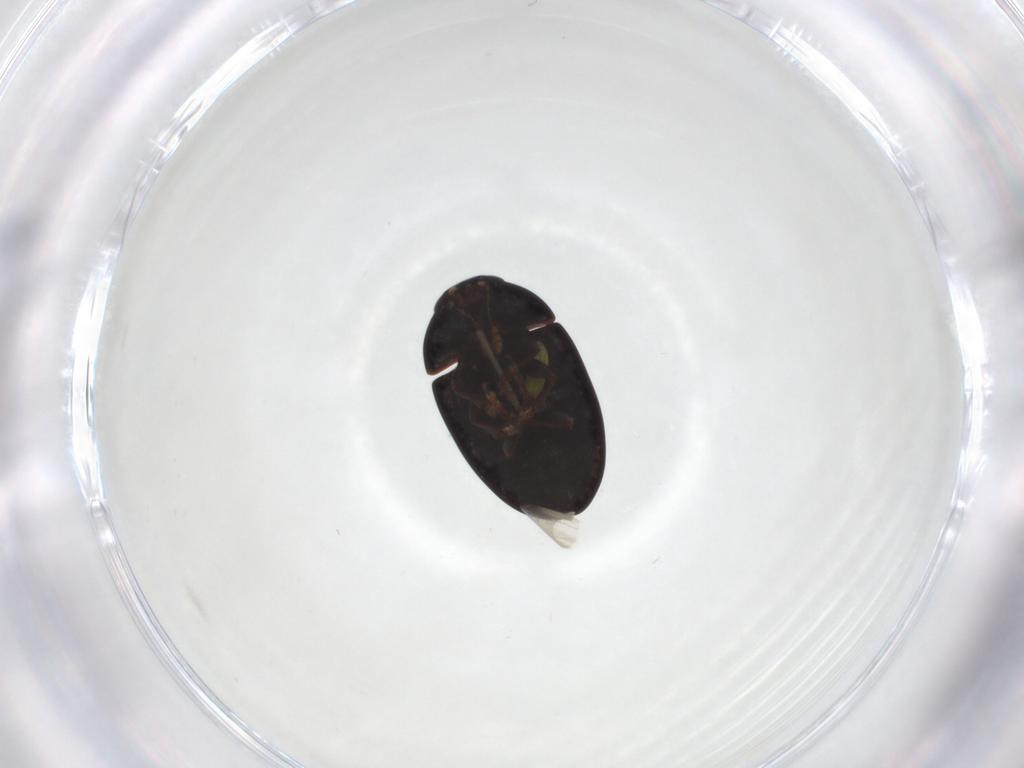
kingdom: Animalia
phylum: Arthropoda
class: Insecta
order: Coleoptera
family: Phalacridae
